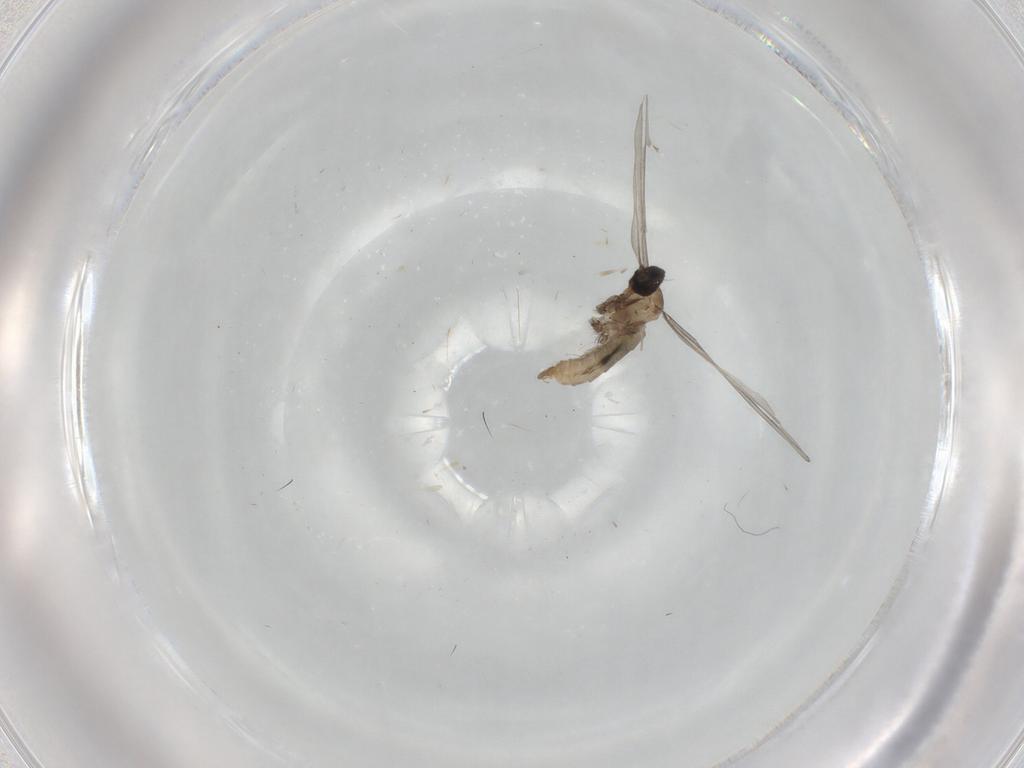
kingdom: Animalia
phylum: Arthropoda
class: Insecta
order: Diptera
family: Cecidomyiidae
